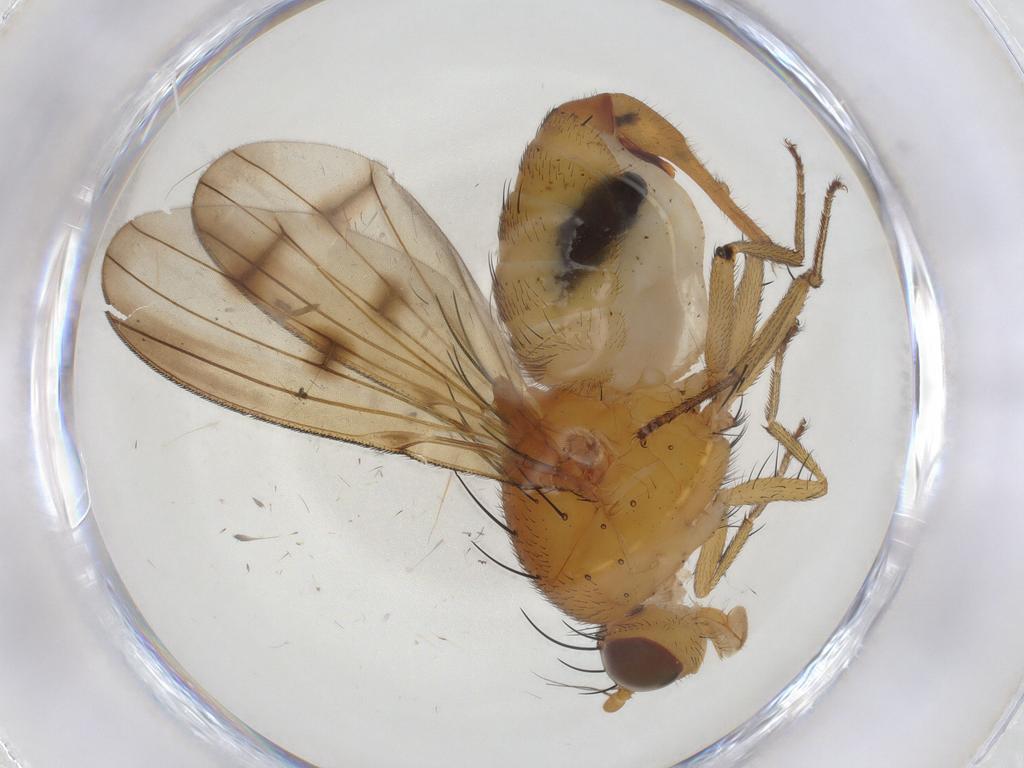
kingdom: Animalia
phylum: Arthropoda
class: Insecta
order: Diptera
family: Limoniidae
